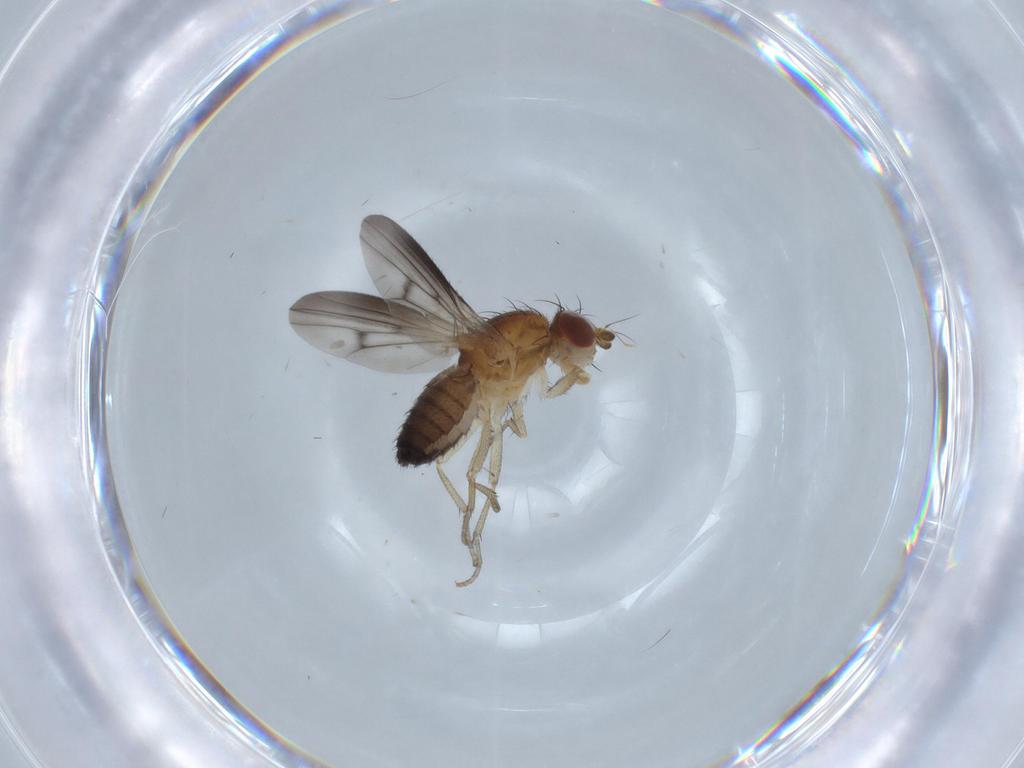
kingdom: Animalia
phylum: Arthropoda
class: Insecta
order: Diptera
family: Heleomyzidae
